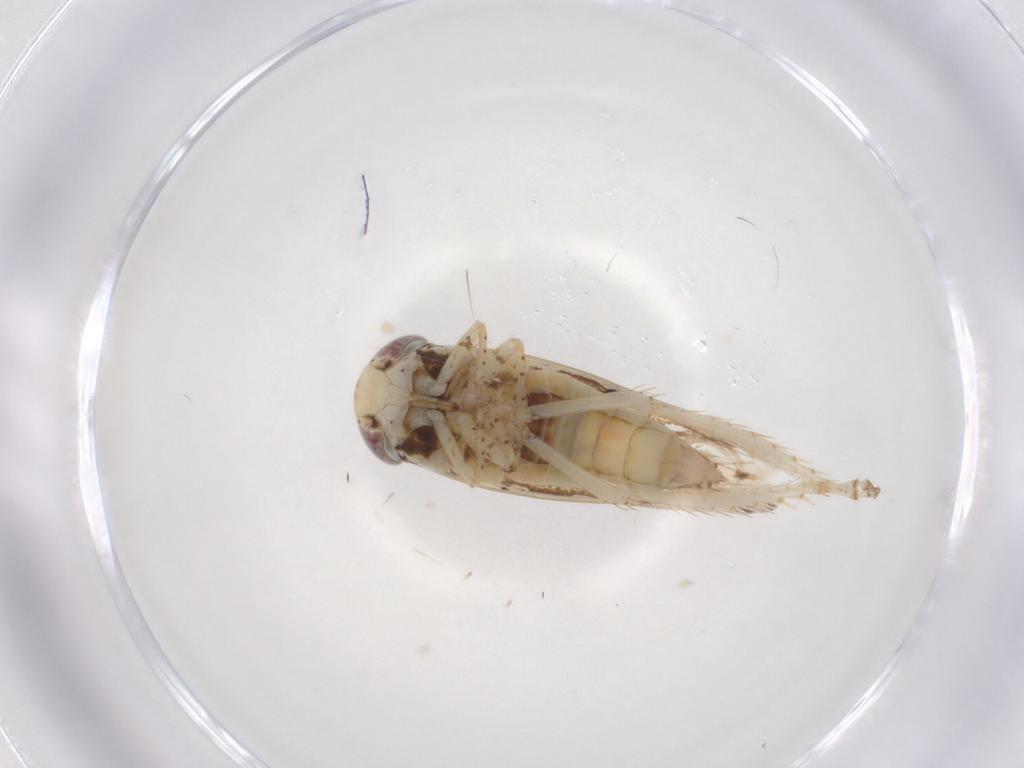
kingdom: Animalia
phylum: Arthropoda
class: Insecta
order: Hemiptera
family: Cicadellidae
